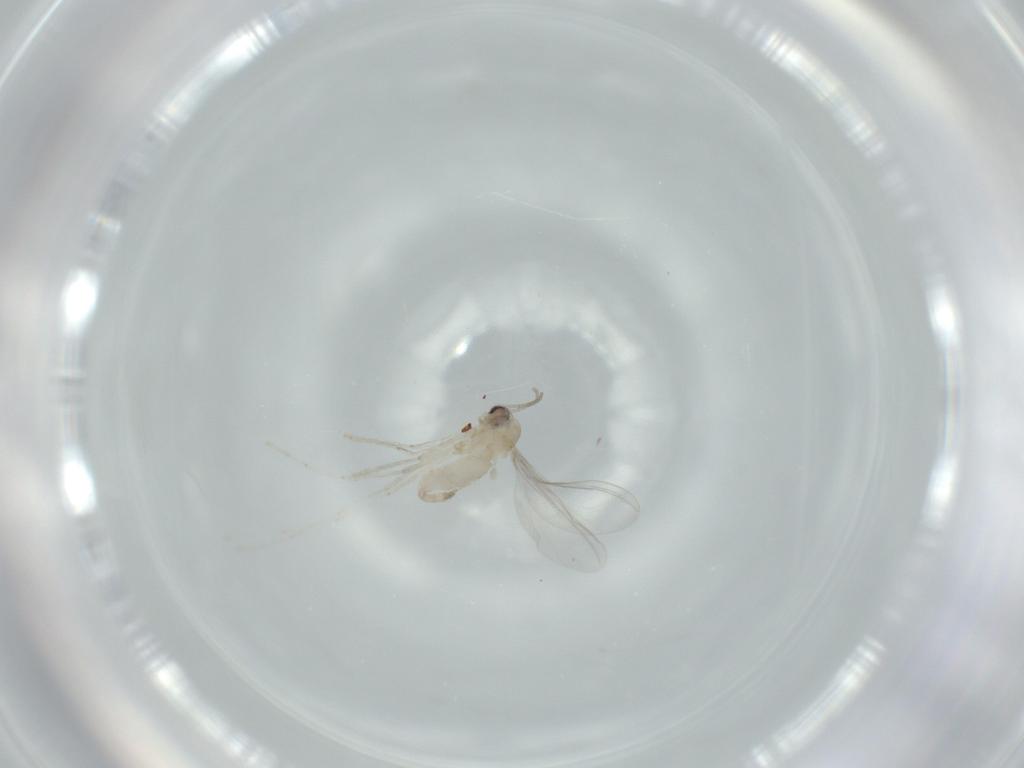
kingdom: Animalia
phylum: Arthropoda
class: Insecta
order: Diptera
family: Cecidomyiidae
